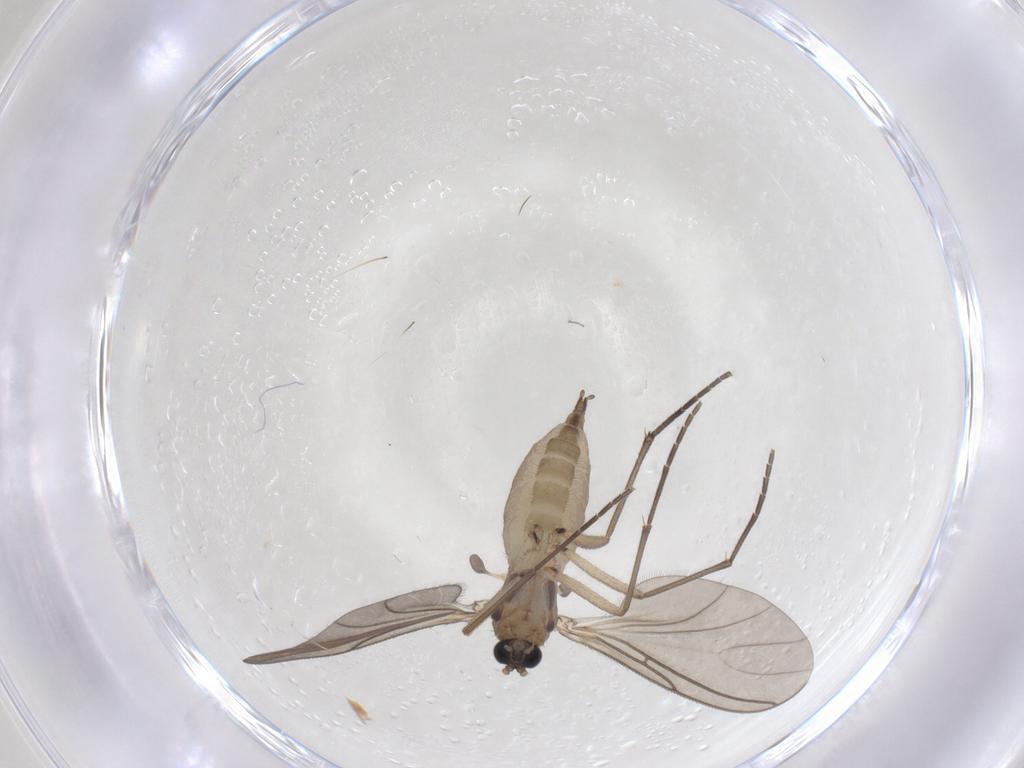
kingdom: Animalia
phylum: Arthropoda
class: Insecta
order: Diptera
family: Sciaridae
